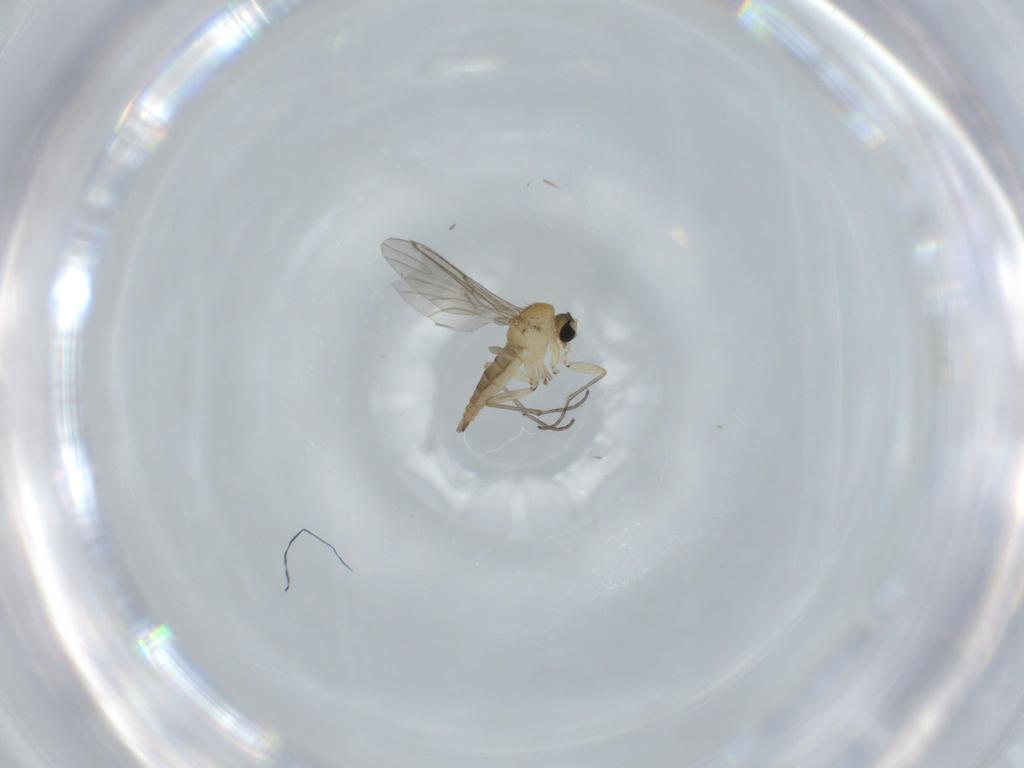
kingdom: Animalia
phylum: Arthropoda
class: Insecta
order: Diptera
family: Sciaridae
